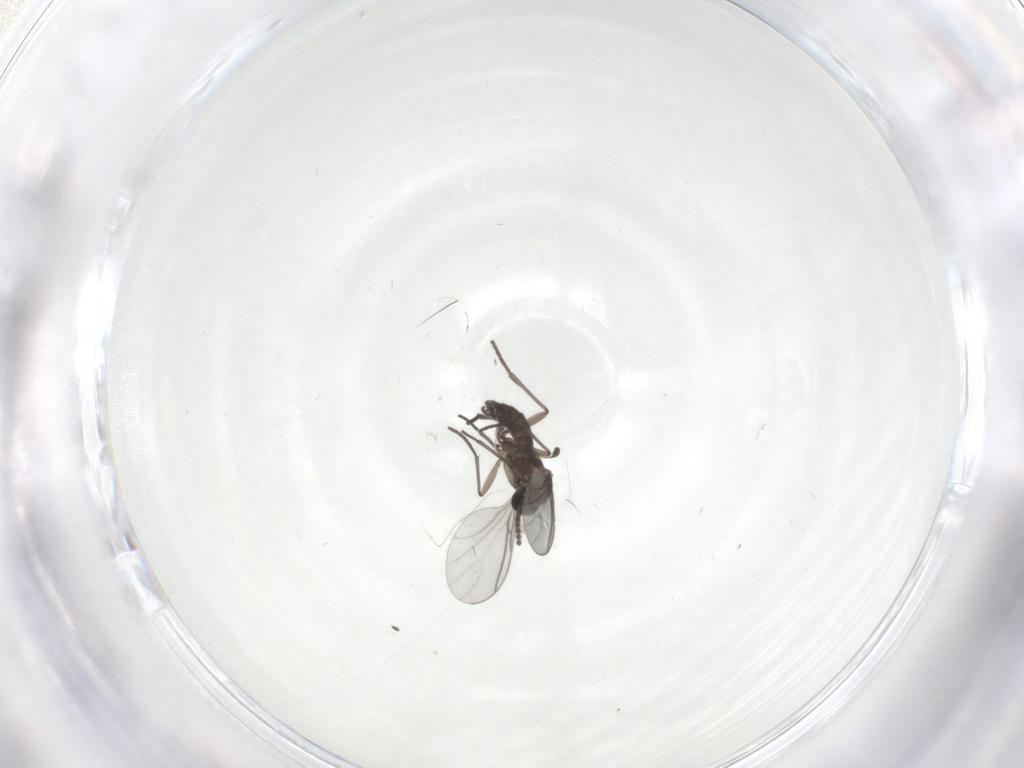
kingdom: Animalia
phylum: Arthropoda
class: Insecta
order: Diptera
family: Sciaridae
